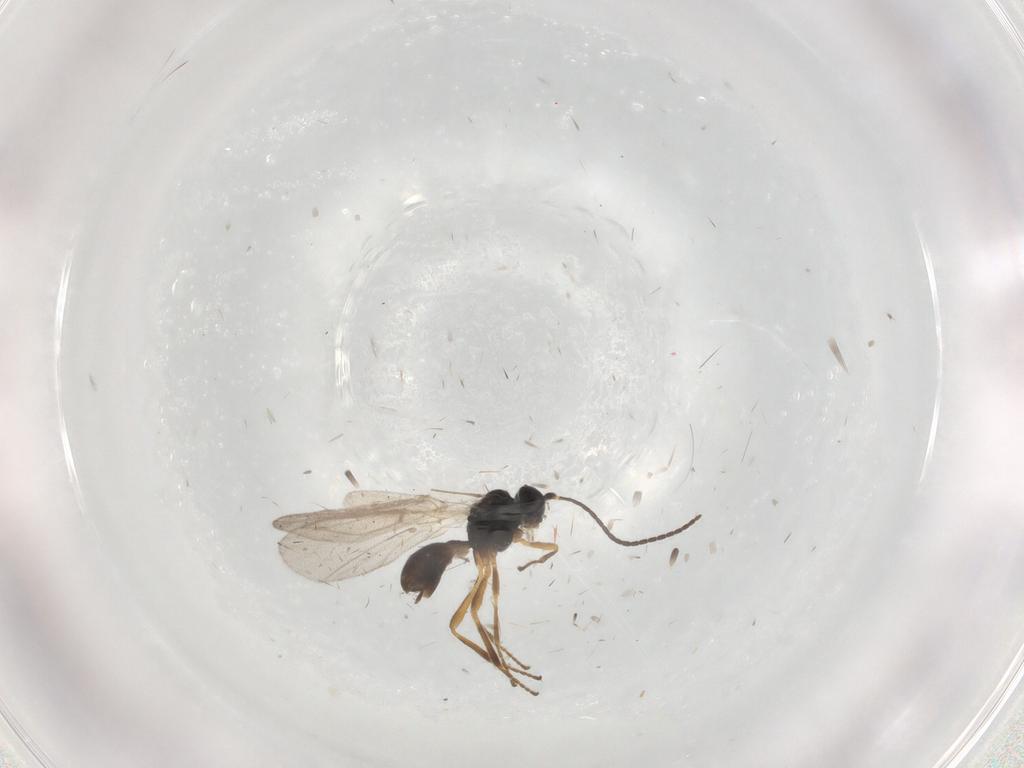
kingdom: Animalia
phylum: Arthropoda
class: Insecta
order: Hymenoptera
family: Braconidae
